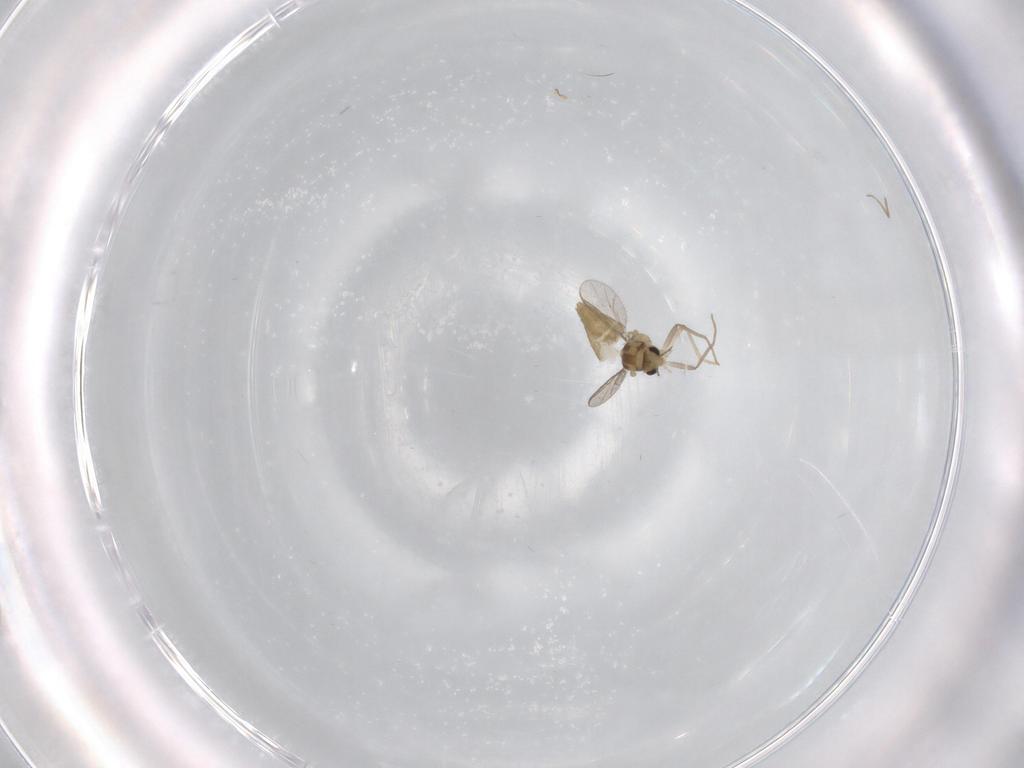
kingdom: Animalia
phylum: Arthropoda
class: Insecta
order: Diptera
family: Chironomidae
